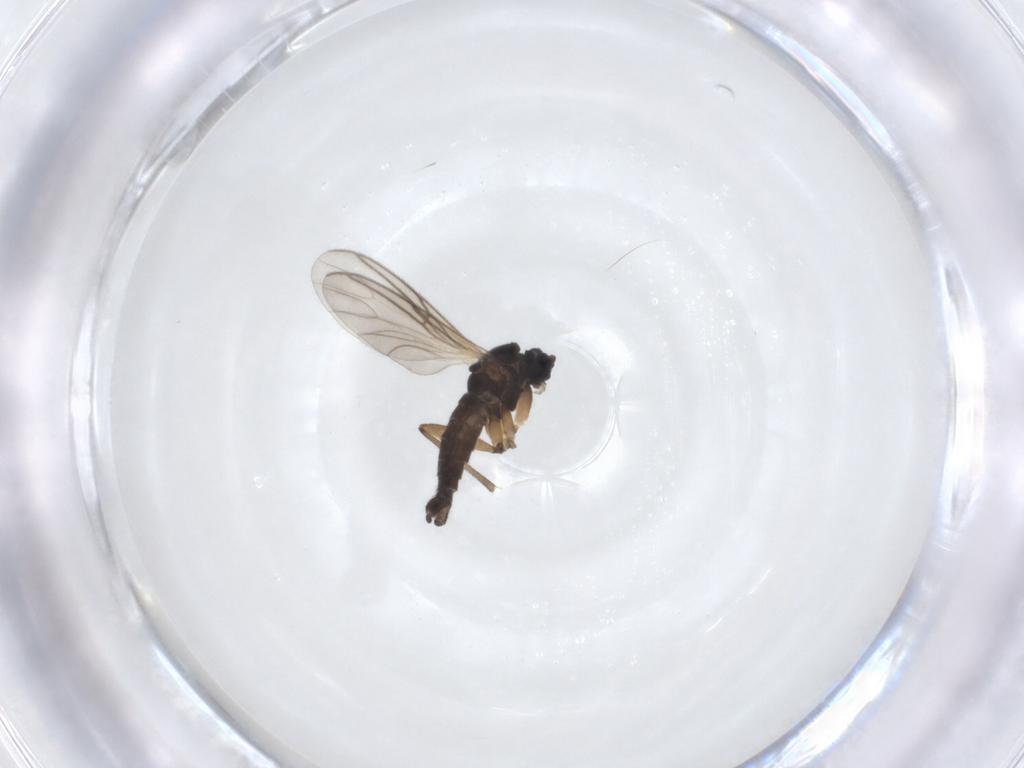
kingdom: Animalia
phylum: Arthropoda
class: Insecta
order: Diptera
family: Sciaridae
